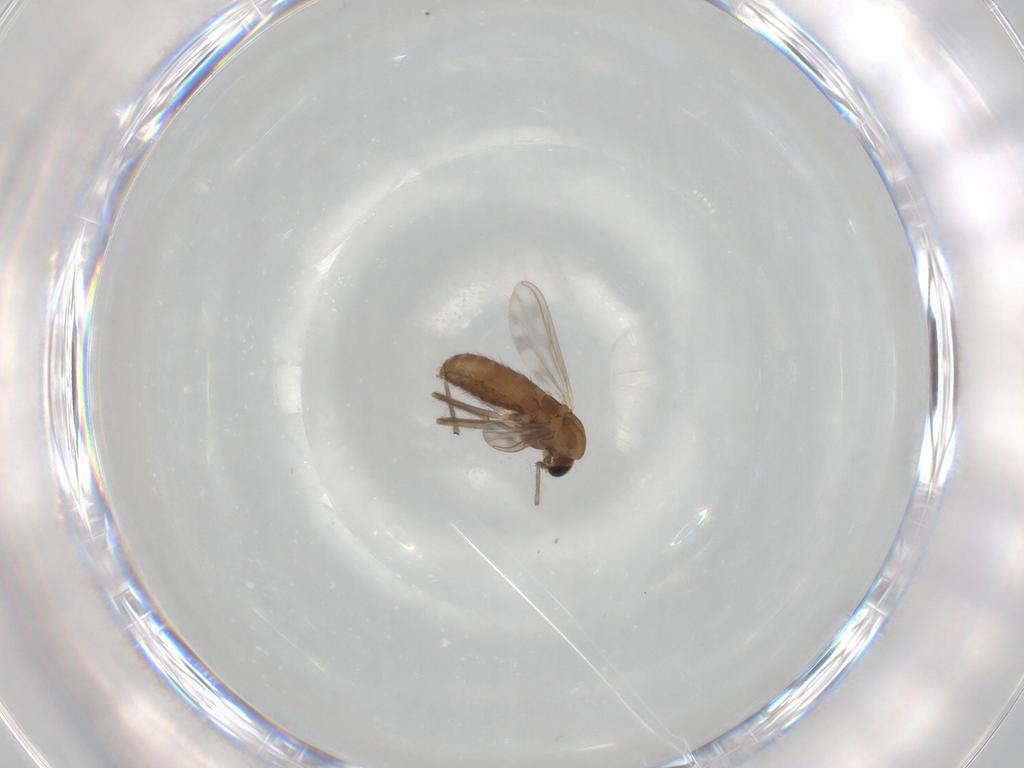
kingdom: Animalia
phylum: Arthropoda
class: Insecta
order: Diptera
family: Chironomidae
